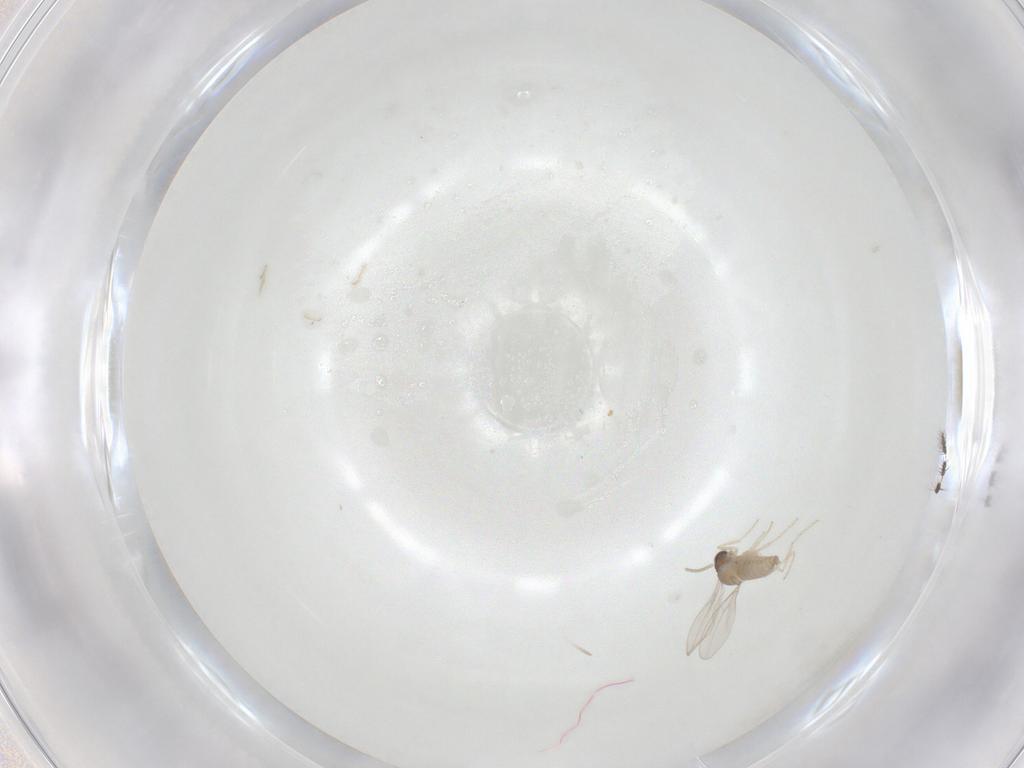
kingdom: Animalia
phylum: Arthropoda
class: Insecta
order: Diptera
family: Cecidomyiidae
